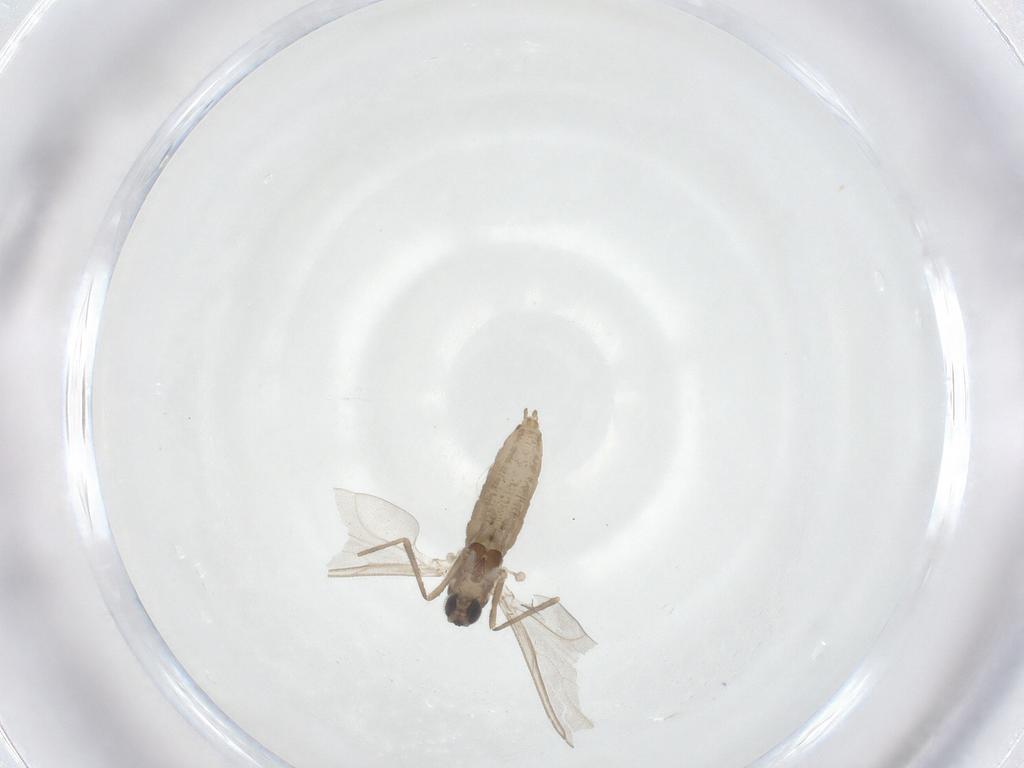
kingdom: Animalia
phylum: Arthropoda
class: Insecta
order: Diptera
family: Cecidomyiidae
